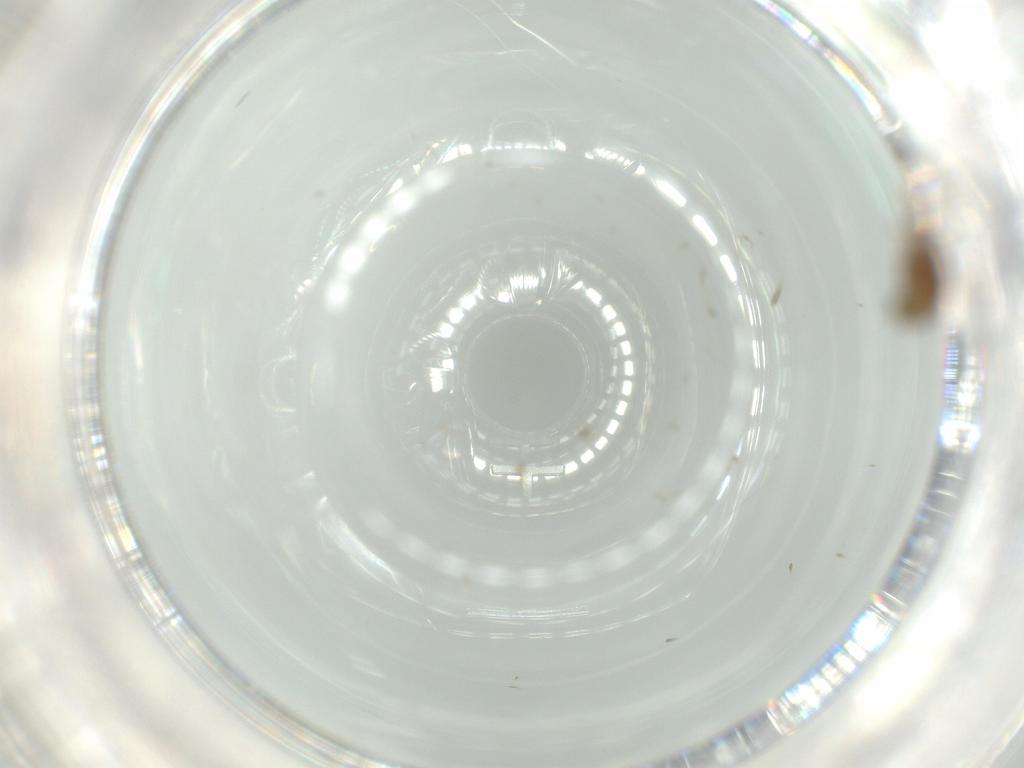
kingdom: Animalia
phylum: Arthropoda
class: Insecta
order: Diptera
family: Chironomidae
